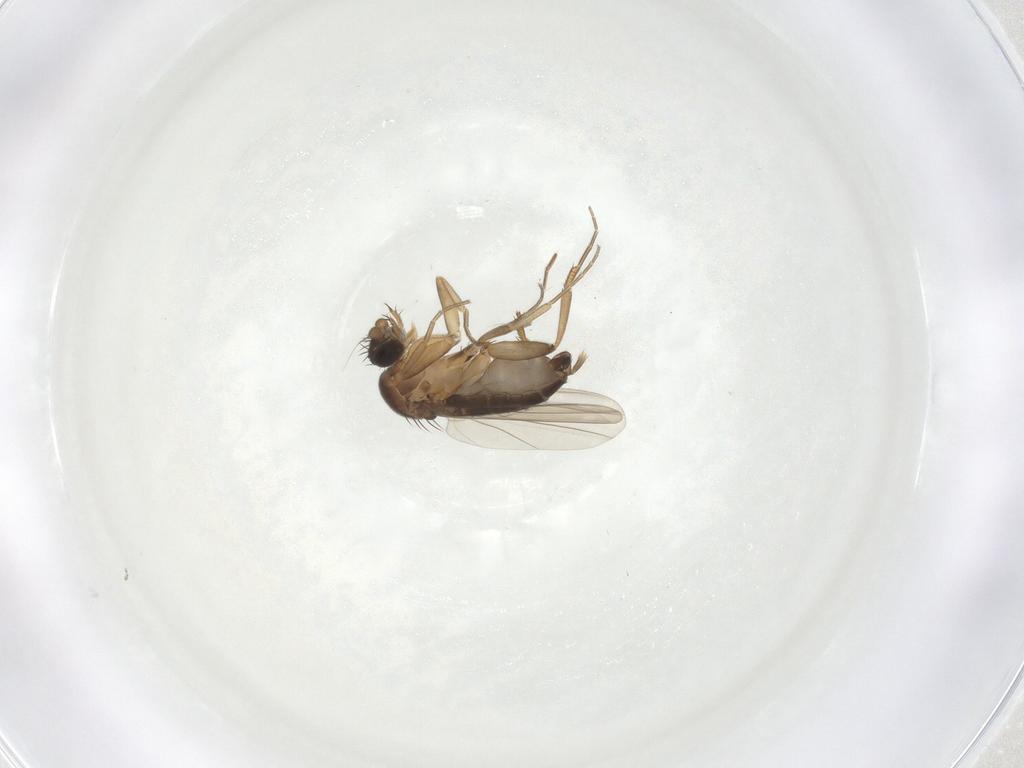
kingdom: Animalia
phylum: Arthropoda
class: Insecta
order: Diptera
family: Phoridae
